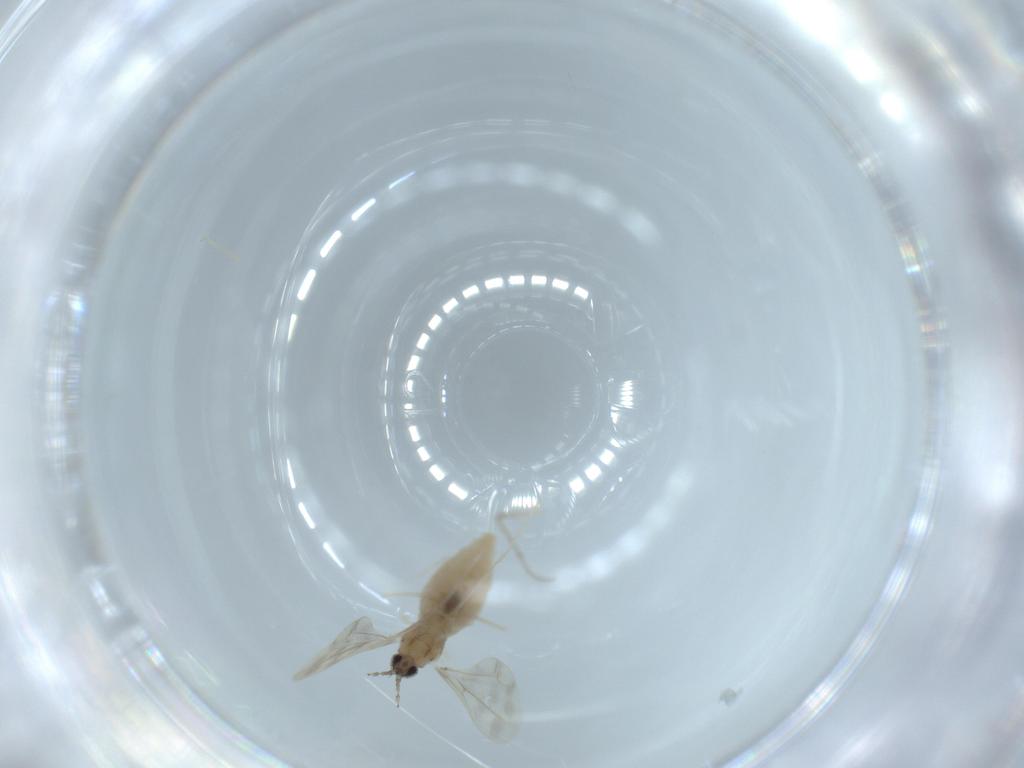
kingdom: Animalia
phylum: Arthropoda
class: Insecta
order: Diptera
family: Cecidomyiidae
